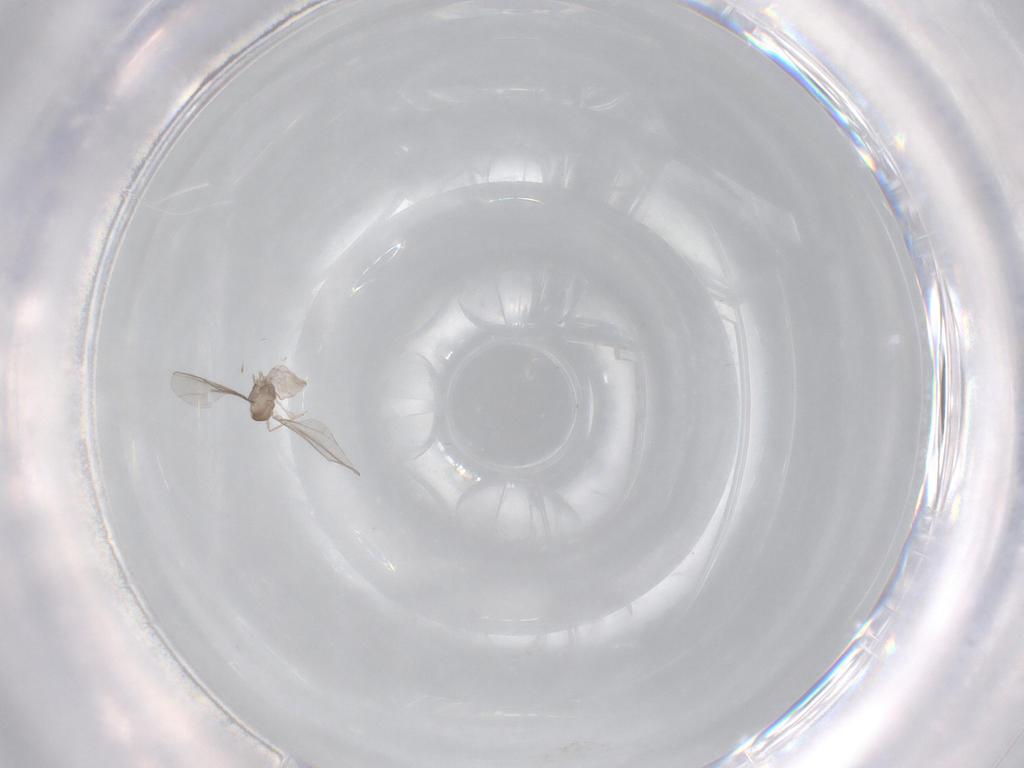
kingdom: Animalia
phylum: Arthropoda
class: Insecta
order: Diptera
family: Cecidomyiidae
